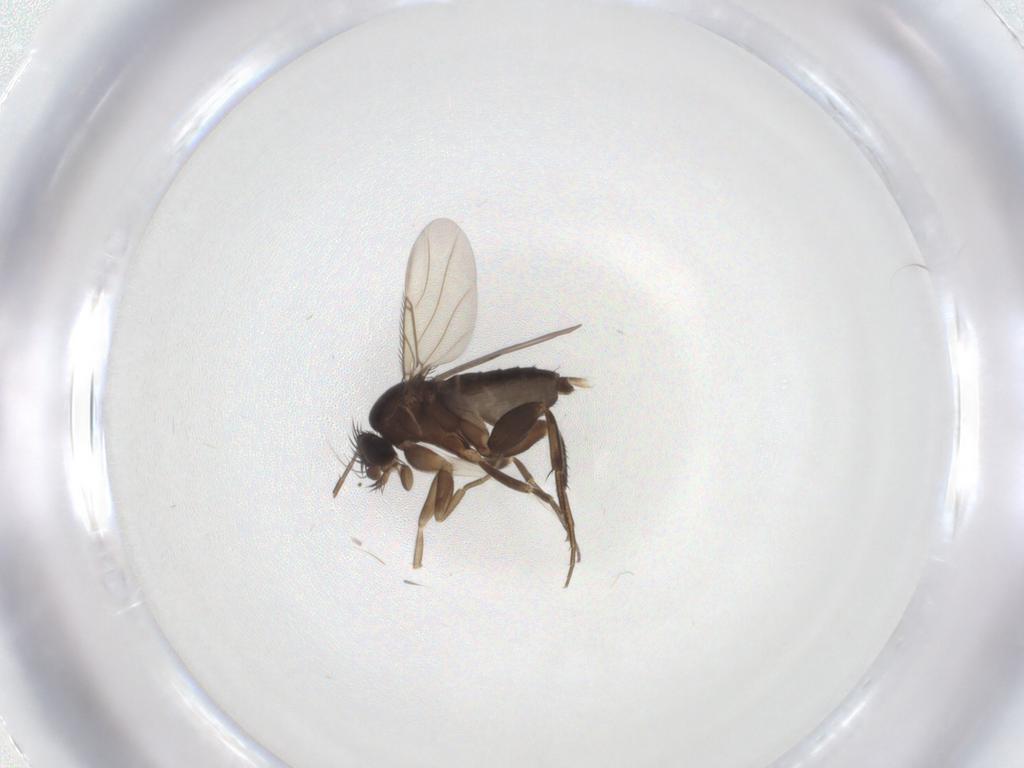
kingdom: Animalia
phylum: Arthropoda
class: Insecta
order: Diptera
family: Phoridae
